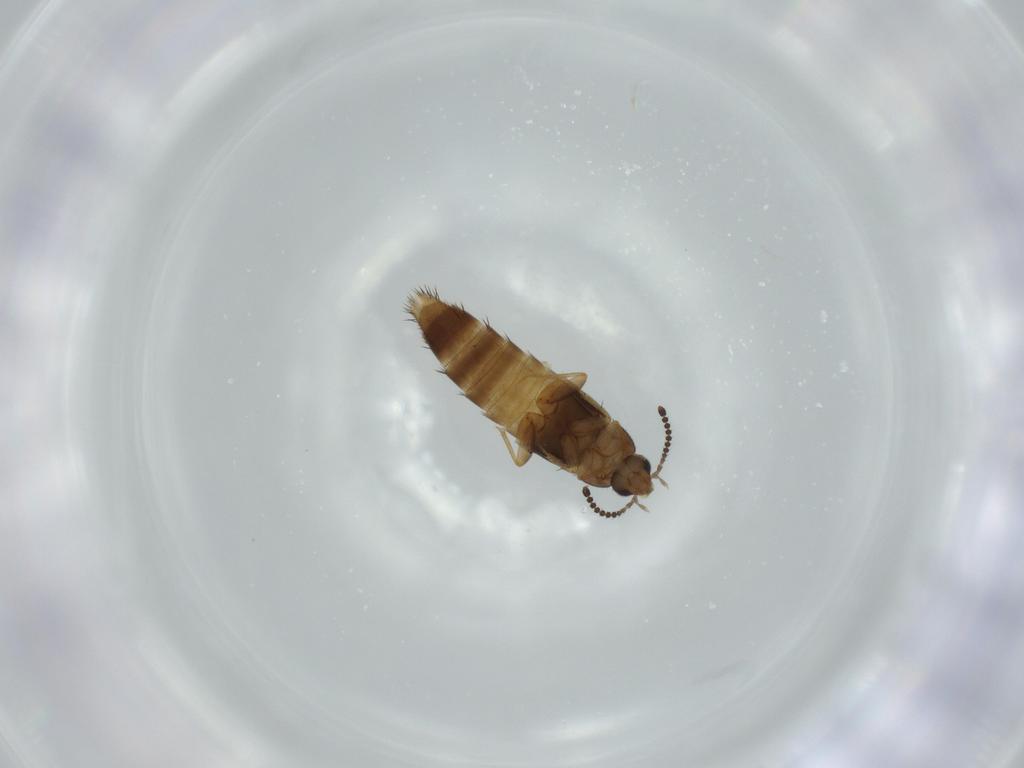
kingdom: Animalia
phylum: Arthropoda
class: Insecta
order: Coleoptera
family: Staphylinidae
